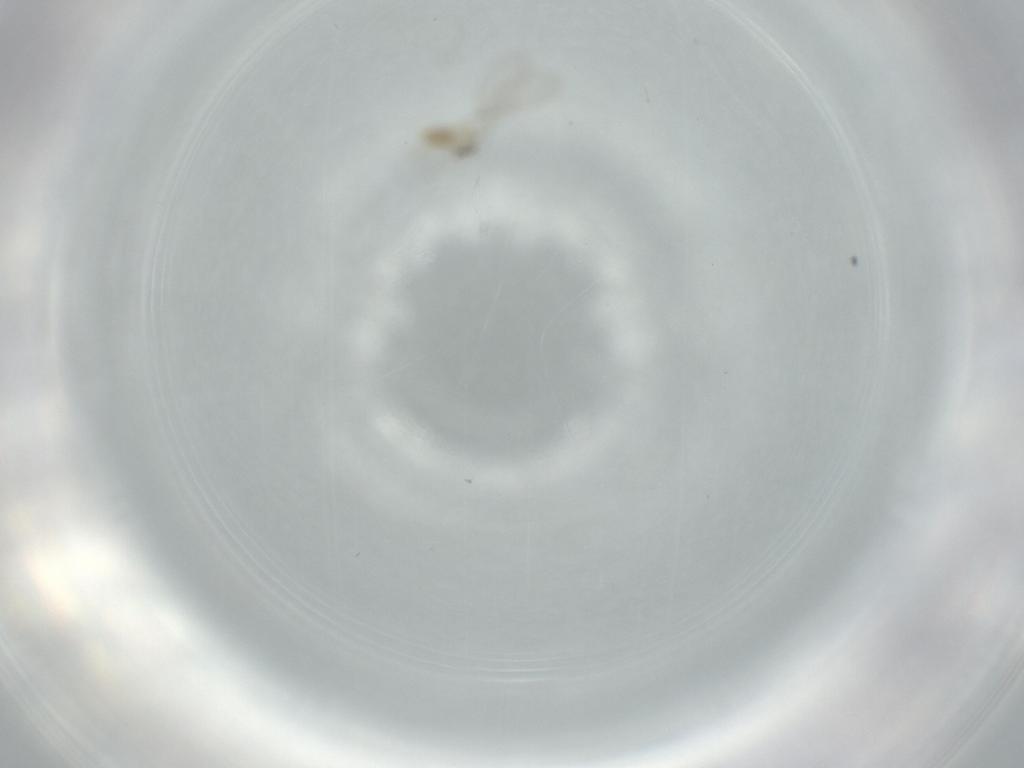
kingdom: Animalia
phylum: Arthropoda
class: Insecta
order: Diptera
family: Cecidomyiidae
